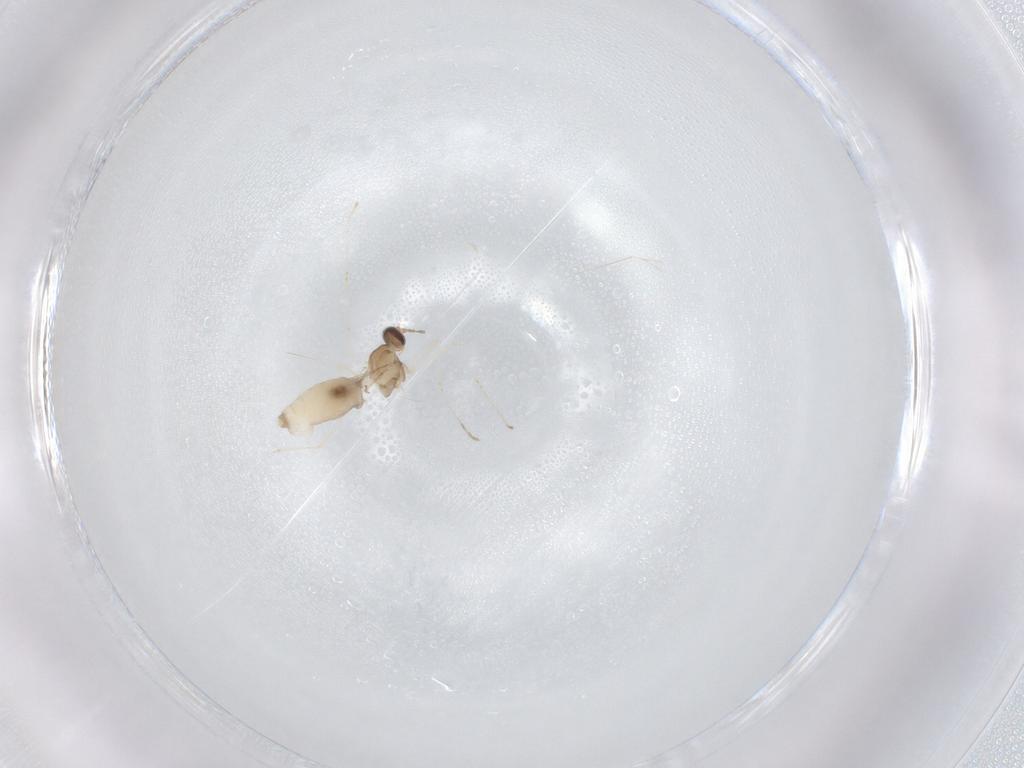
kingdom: Animalia
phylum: Arthropoda
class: Insecta
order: Diptera
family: Cecidomyiidae
